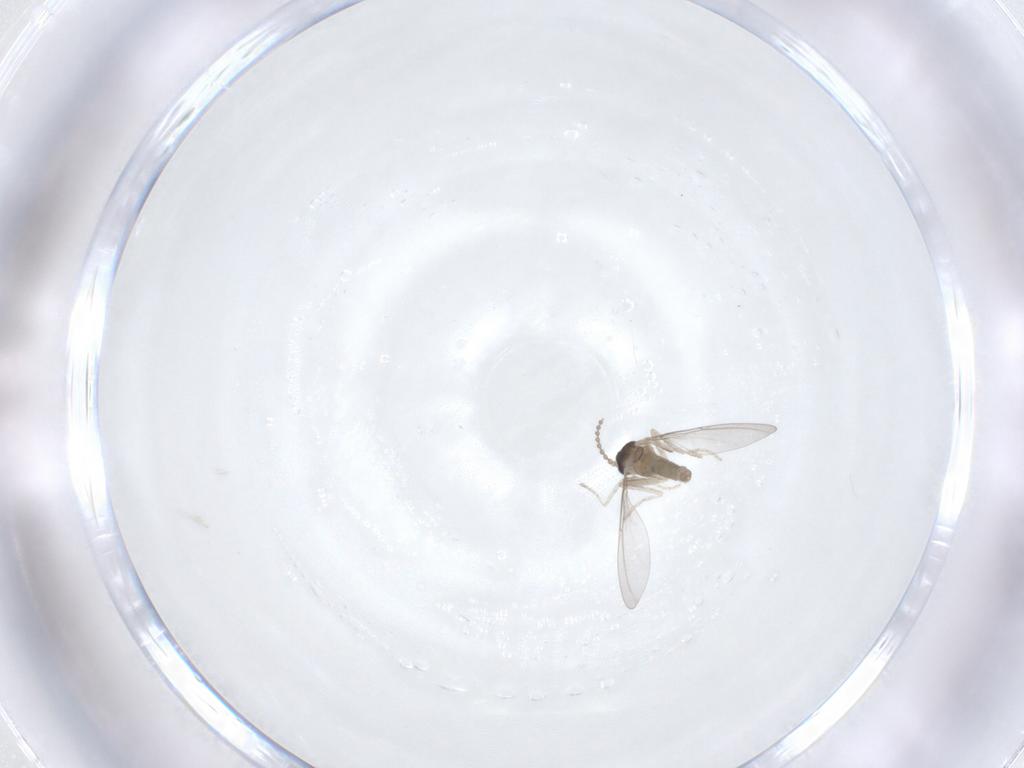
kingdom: Animalia
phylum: Arthropoda
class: Insecta
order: Diptera
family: Cecidomyiidae
